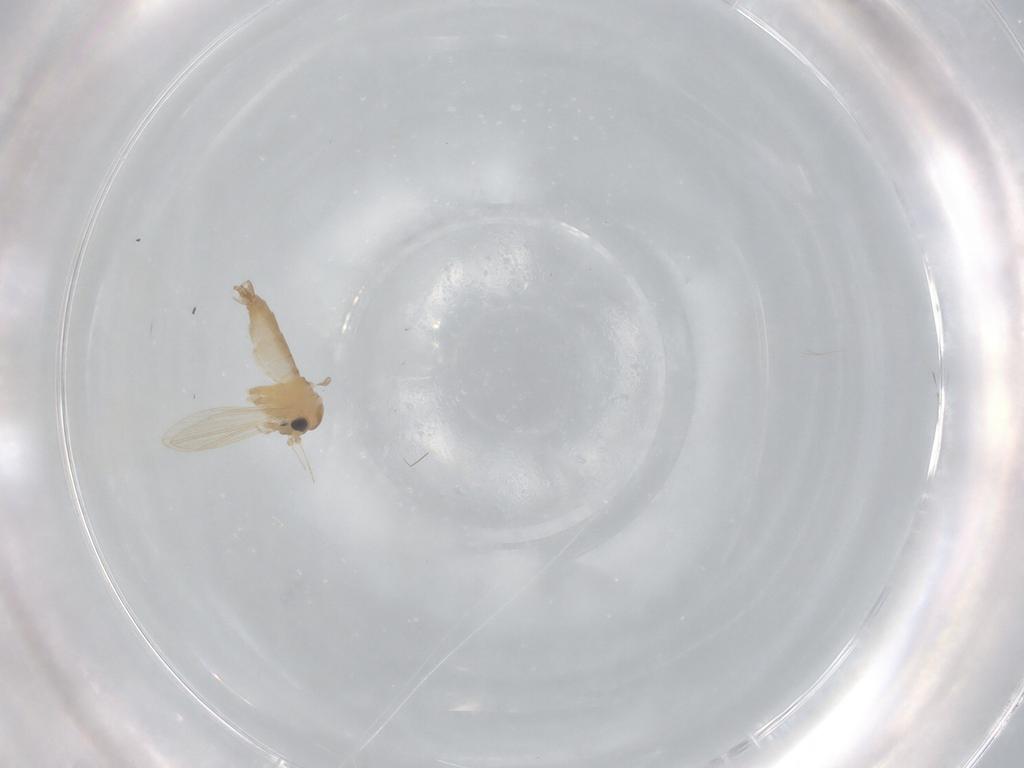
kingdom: Animalia
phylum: Arthropoda
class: Insecta
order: Diptera
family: Psychodidae
